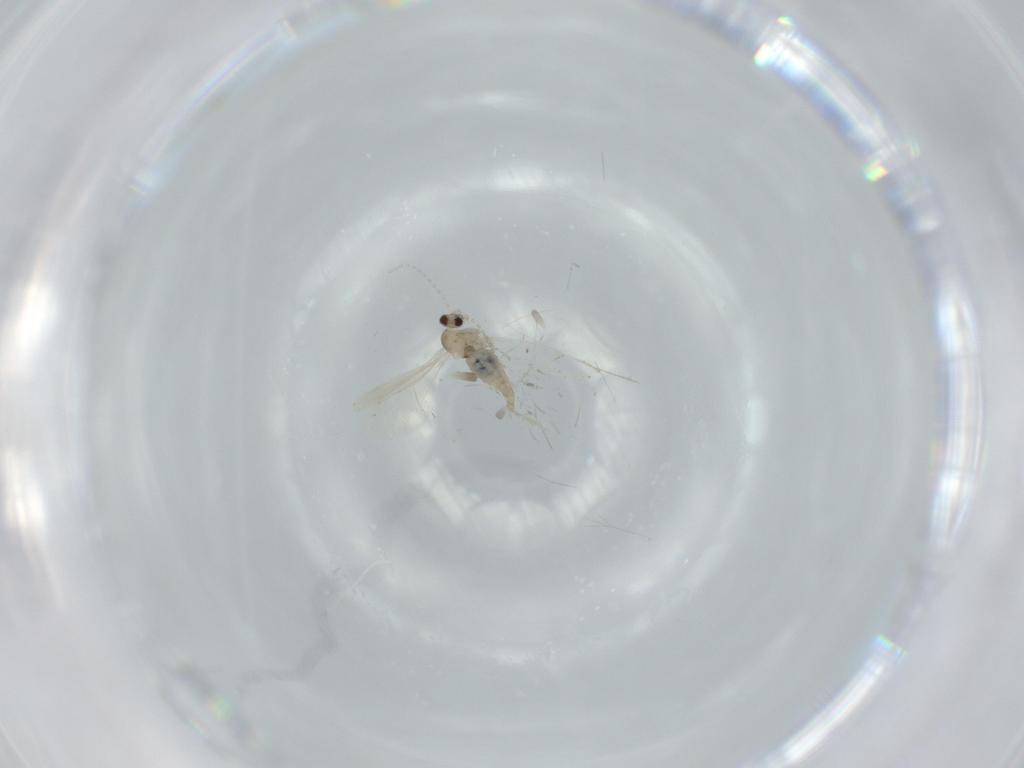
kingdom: Animalia
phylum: Arthropoda
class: Insecta
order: Diptera
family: Cecidomyiidae
